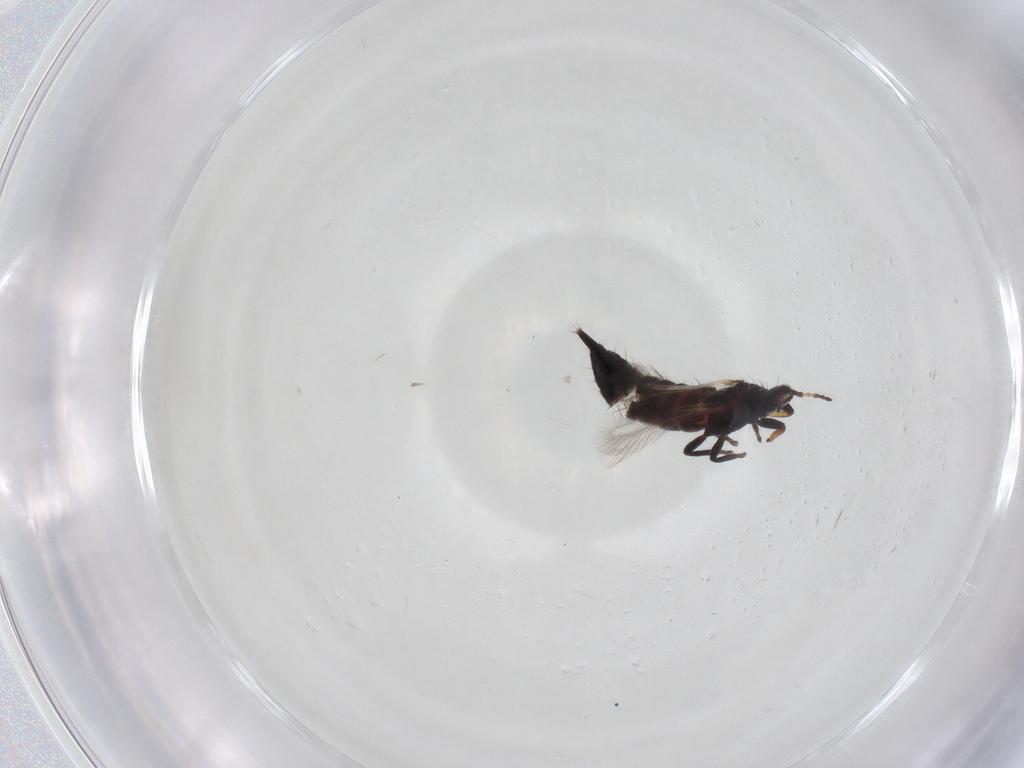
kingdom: Animalia
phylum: Arthropoda
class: Insecta
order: Thysanoptera
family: Phlaeothripidae
